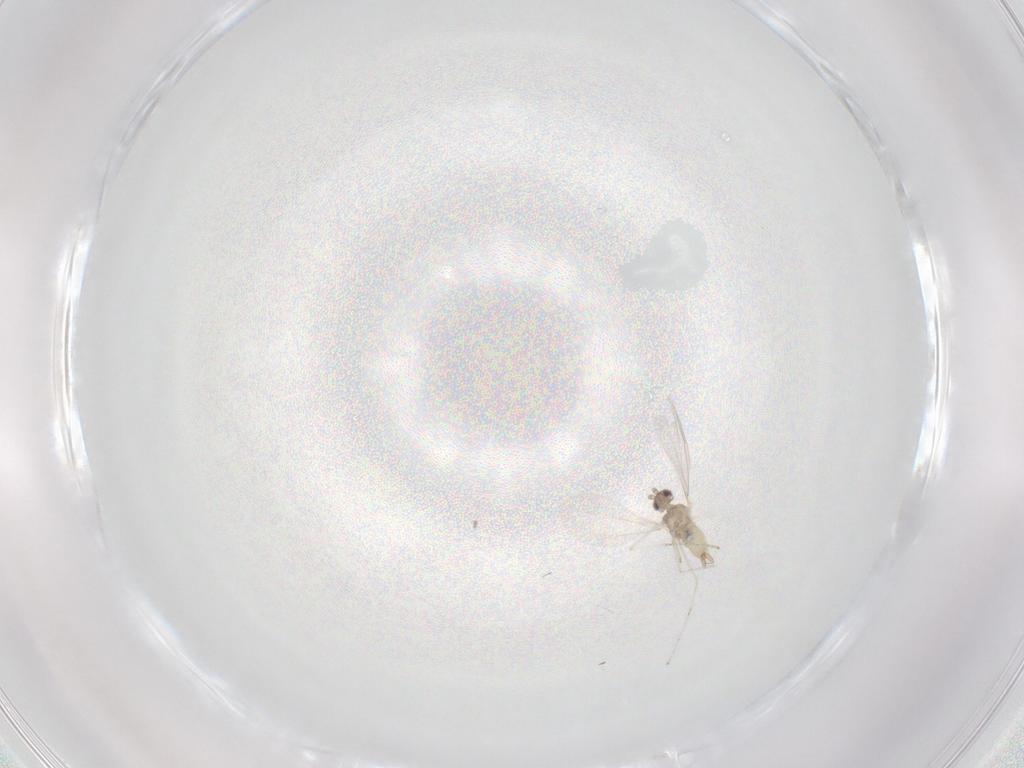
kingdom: Animalia
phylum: Arthropoda
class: Insecta
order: Diptera
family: Cecidomyiidae
